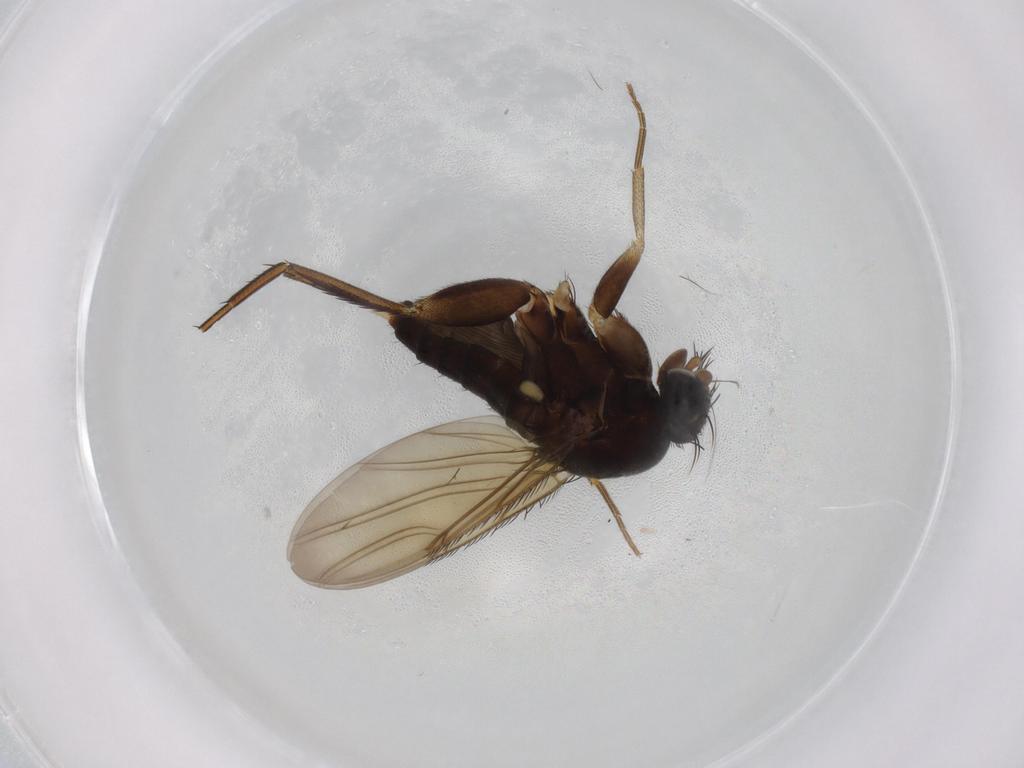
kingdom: Animalia
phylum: Arthropoda
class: Insecta
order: Diptera
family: Phoridae
